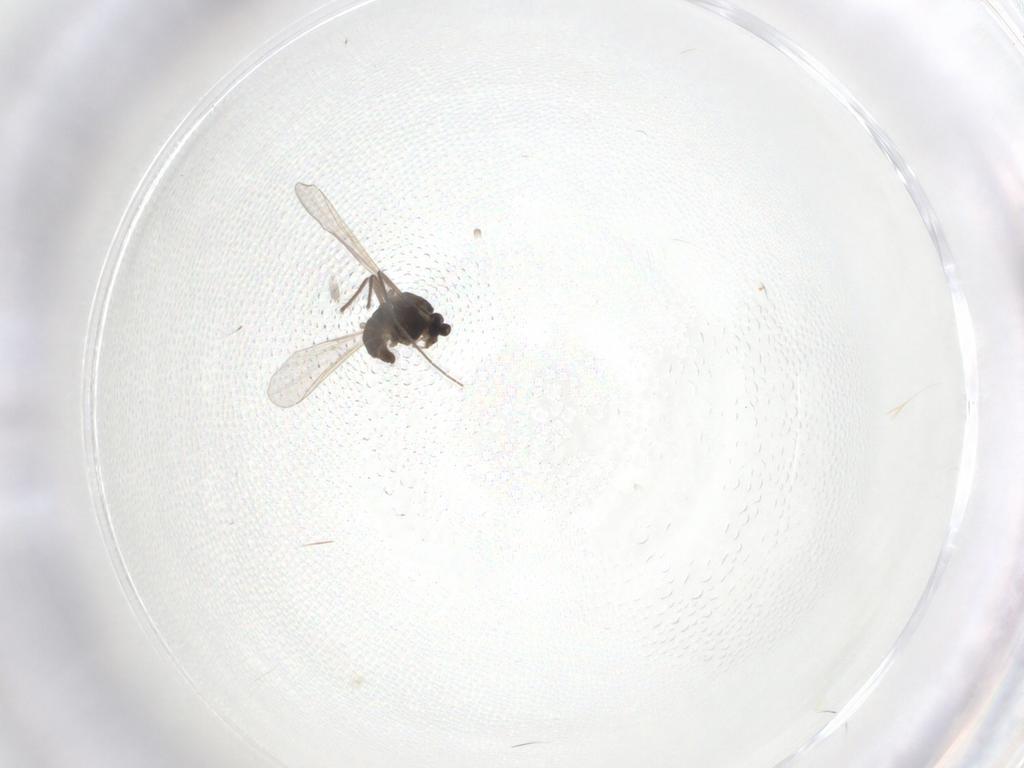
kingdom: Animalia
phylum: Arthropoda
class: Insecta
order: Diptera
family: Chironomidae
